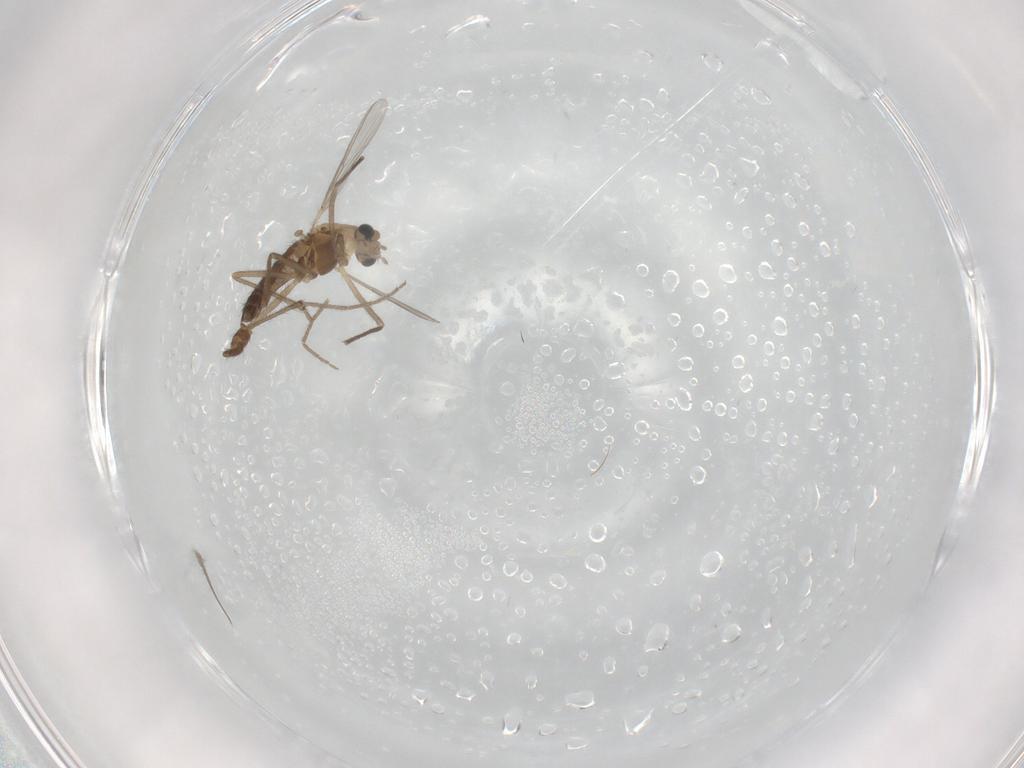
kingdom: Animalia
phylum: Arthropoda
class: Insecta
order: Diptera
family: Chironomidae
